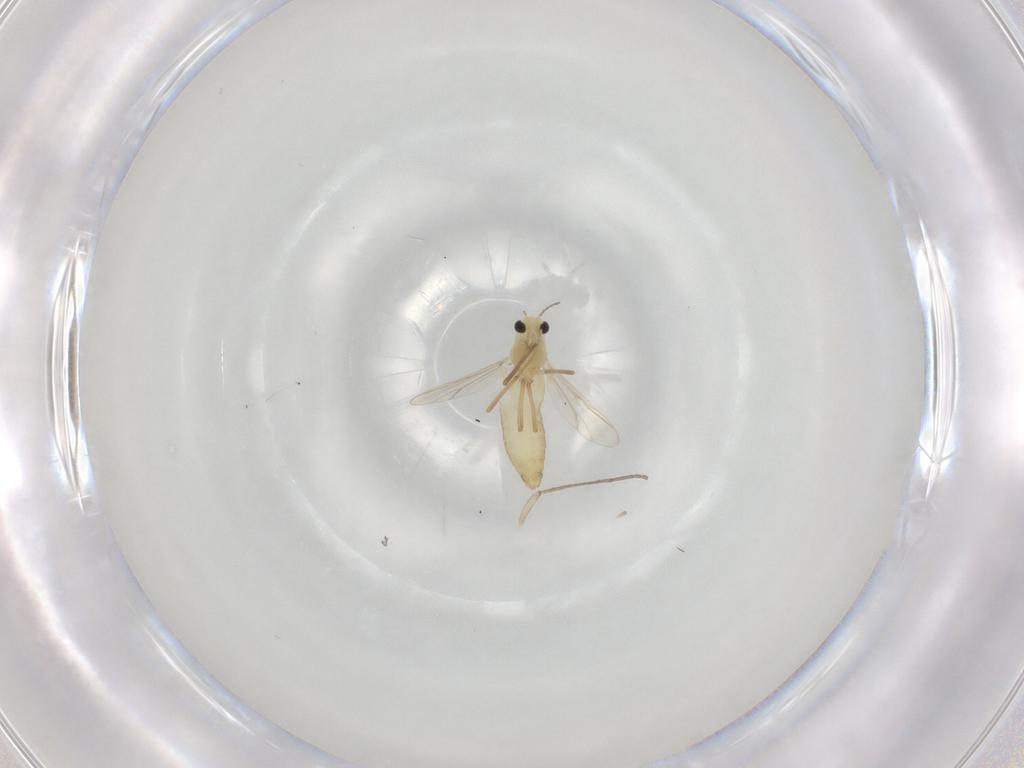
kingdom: Animalia
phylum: Arthropoda
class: Insecta
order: Diptera
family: Chironomidae
